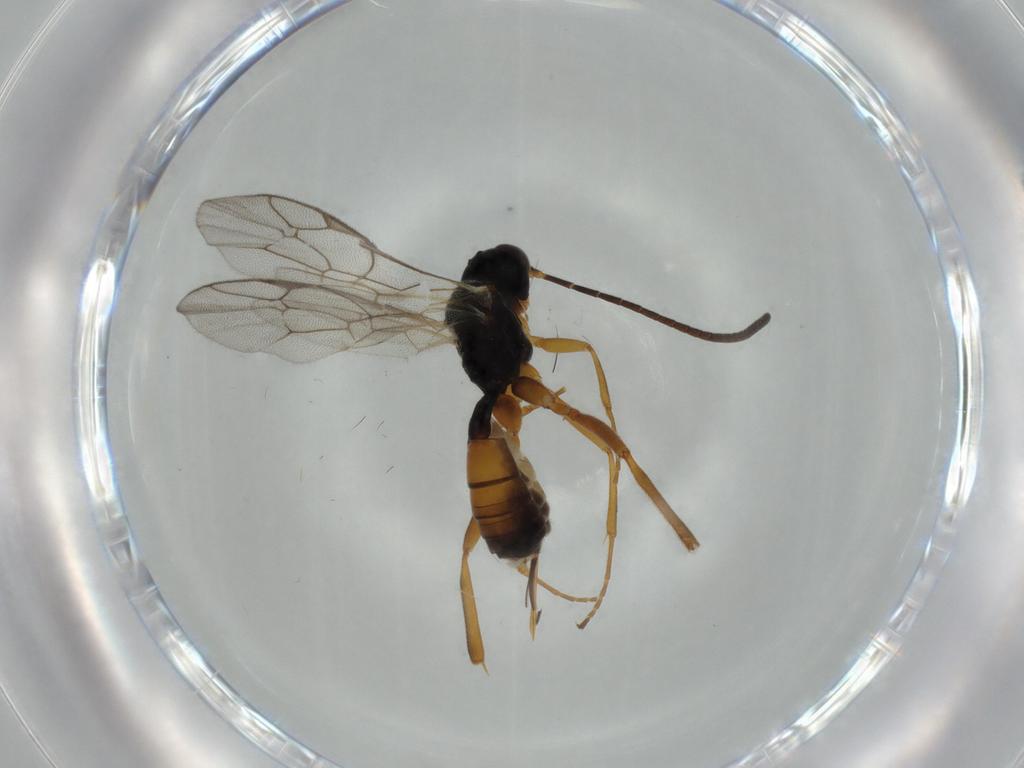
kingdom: Animalia
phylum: Arthropoda
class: Insecta
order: Hymenoptera
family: Ichneumonidae
